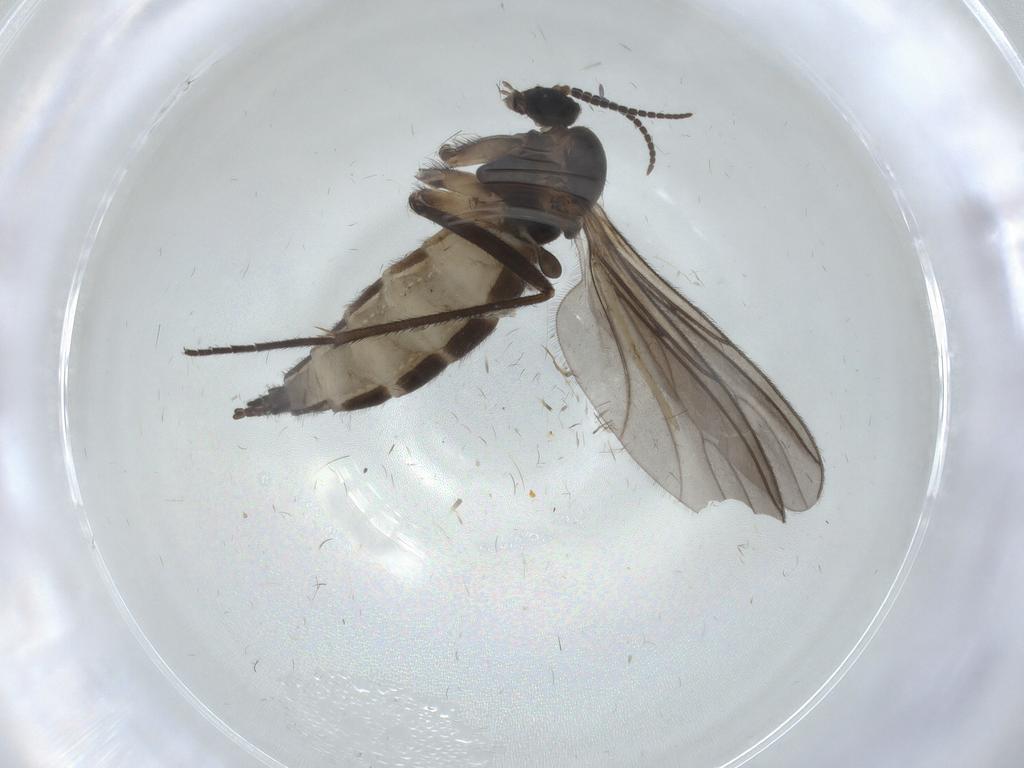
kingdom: Animalia
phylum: Arthropoda
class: Insecta
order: Diptera
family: Sciaridae
